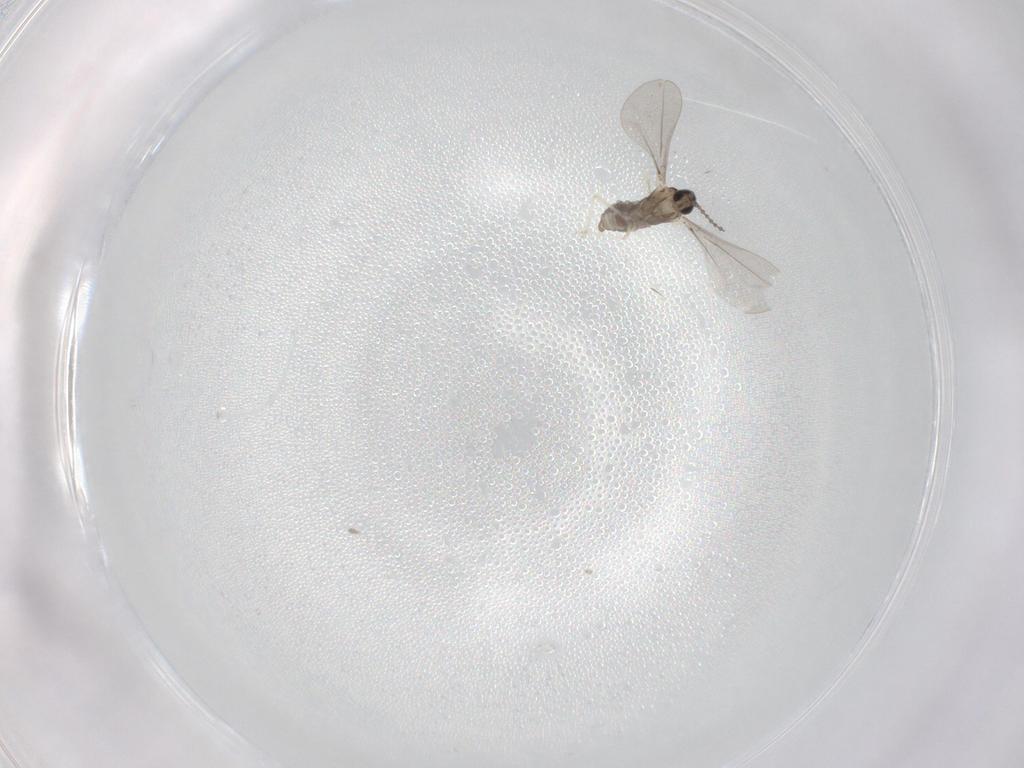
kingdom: Animalia
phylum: Arthropoda
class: Insecta
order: Diptera
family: Cecidomyiidae
